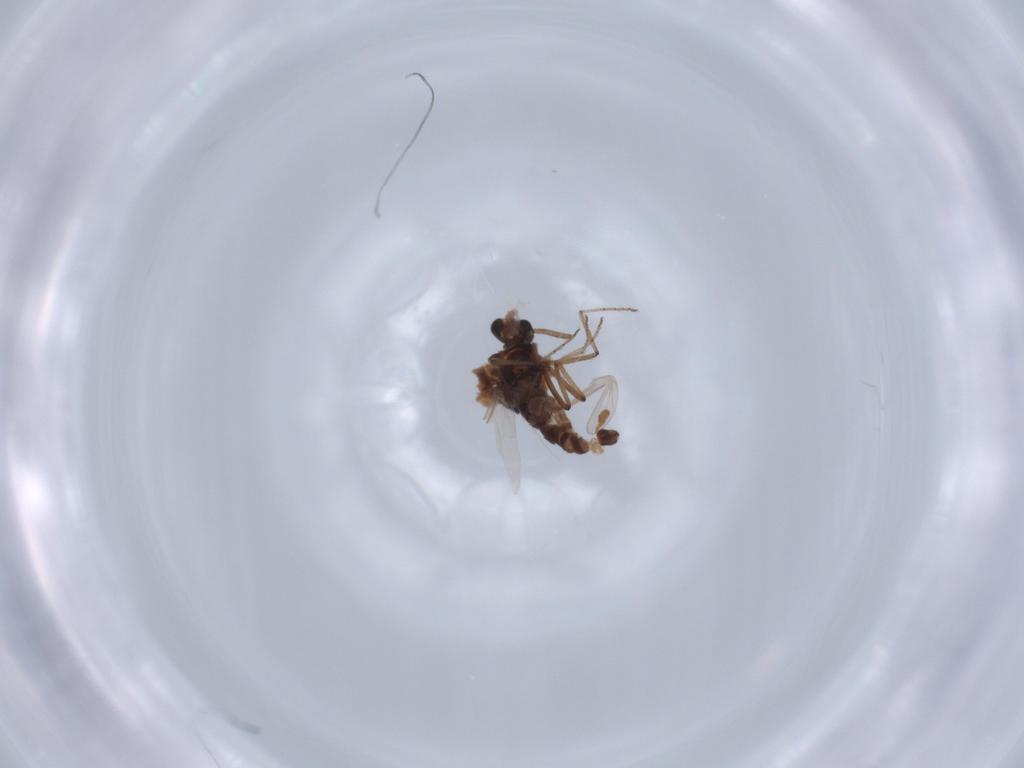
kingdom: Animalia
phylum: Arthropoda
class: Insecta
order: Diptera
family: Ceratopogonidae
